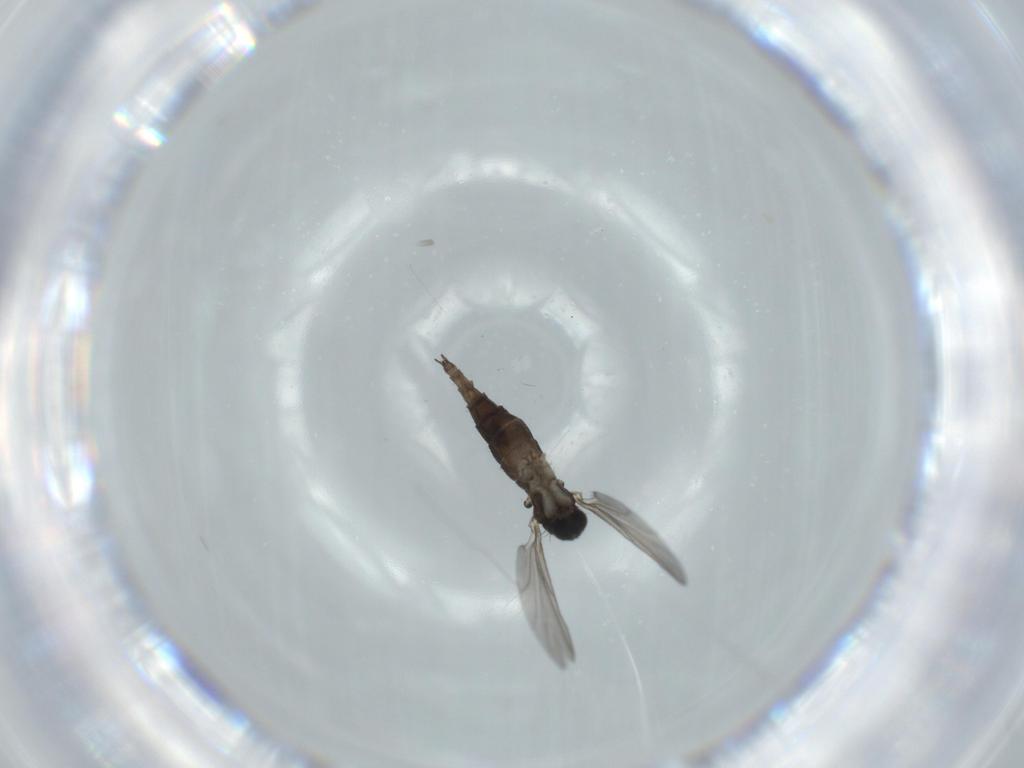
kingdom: Animalia
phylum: Arthropoda
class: Insecta
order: Diptera
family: Sciaridae
